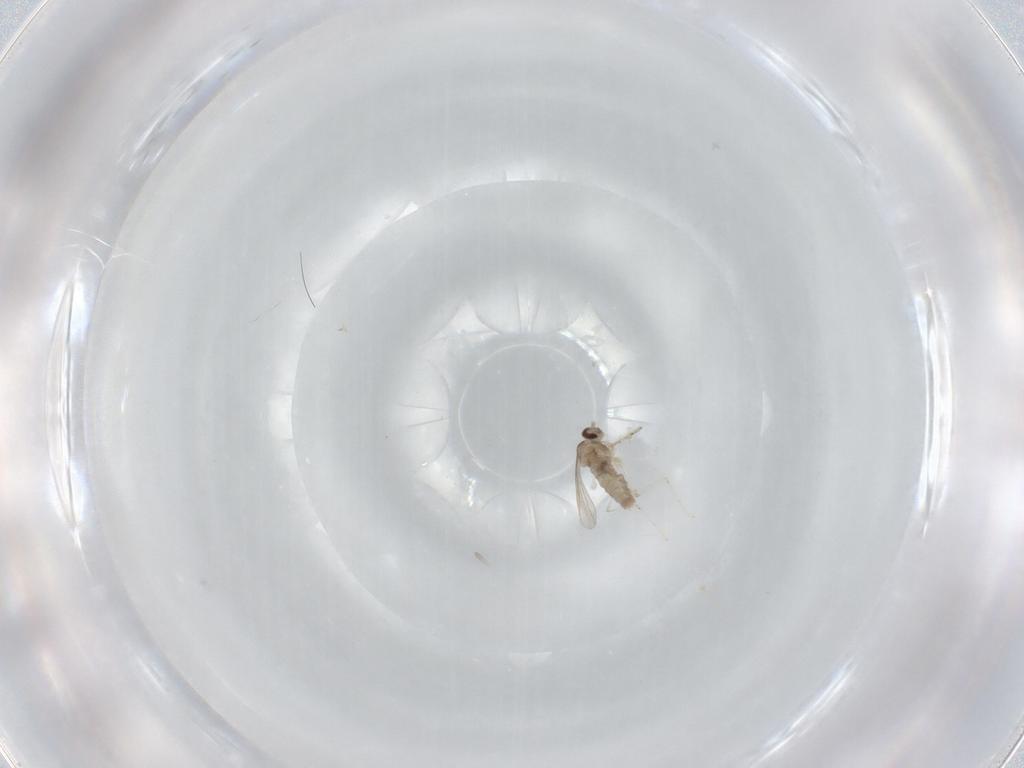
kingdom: Animalia
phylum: Arthropoda
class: Insecta
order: Diptera
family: Cecidomyiidae
